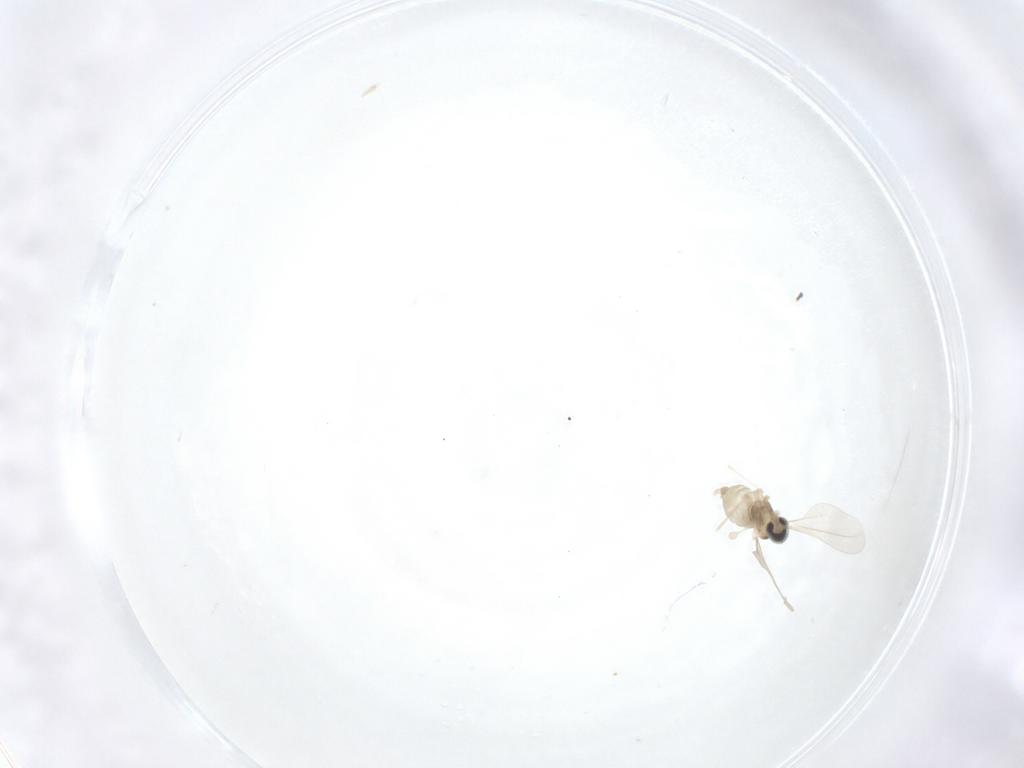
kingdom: Animalia
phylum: Arthropoda
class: Insecta
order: Diptera
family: Cecidomyiidae
